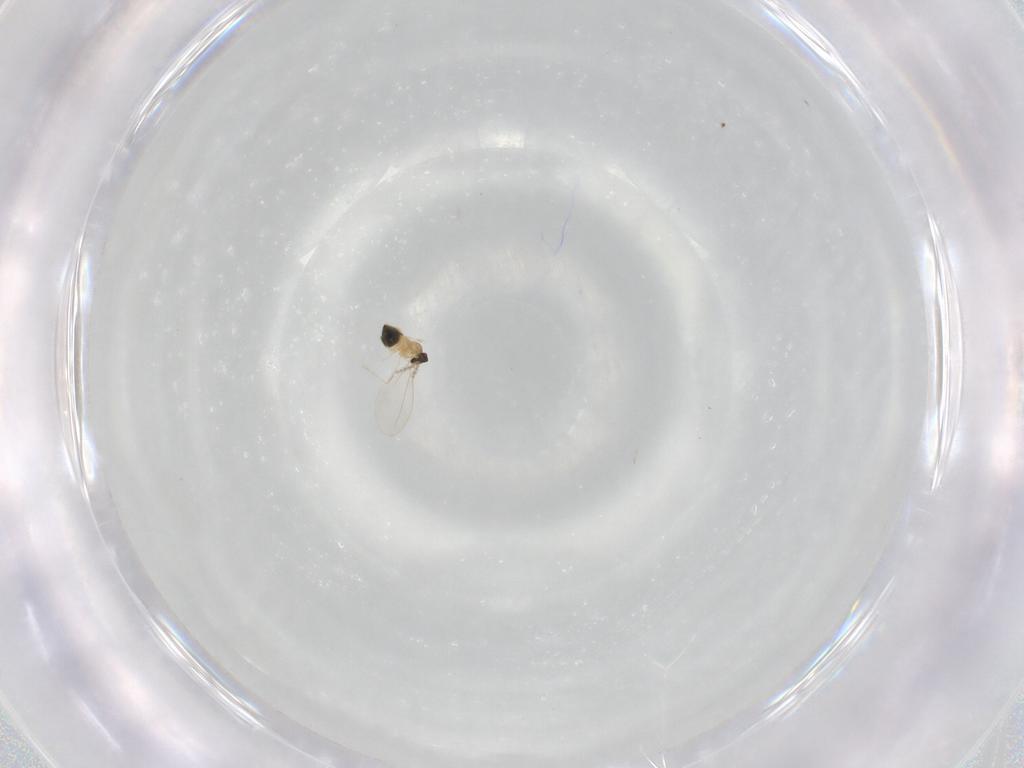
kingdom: Animalia
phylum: Arthropoda
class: Insecta
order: Diptera
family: Cecidomyiidae
